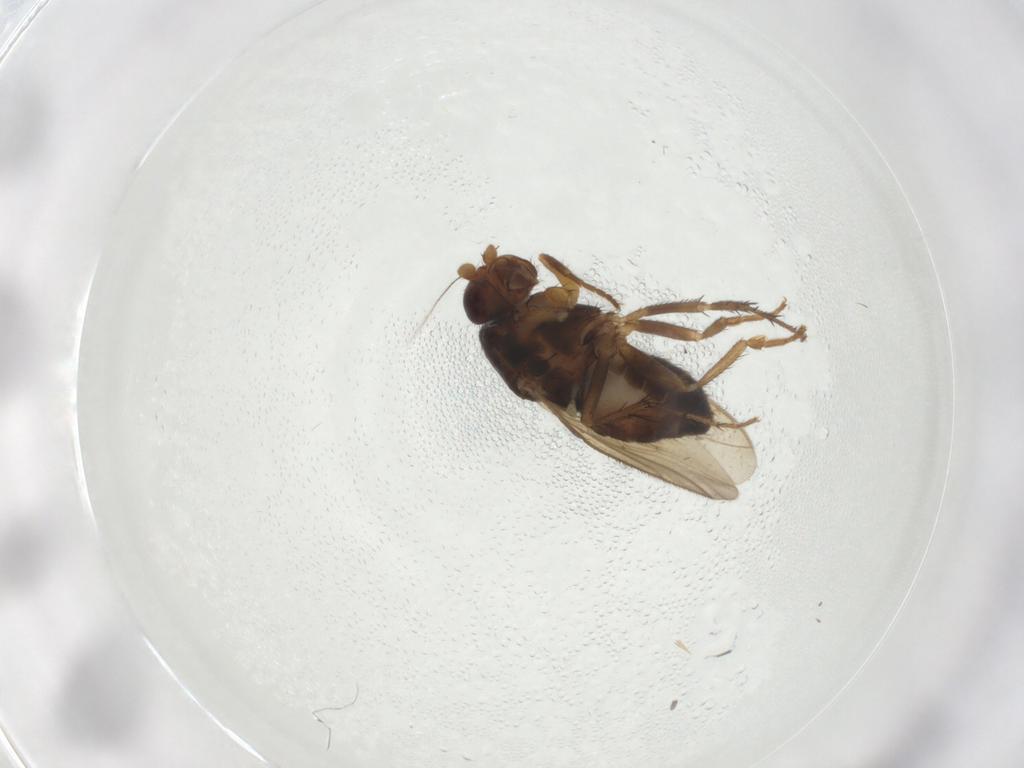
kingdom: Animalia
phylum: Arthropoda
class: Insecta
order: Diptera
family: Sphaeroceridae
